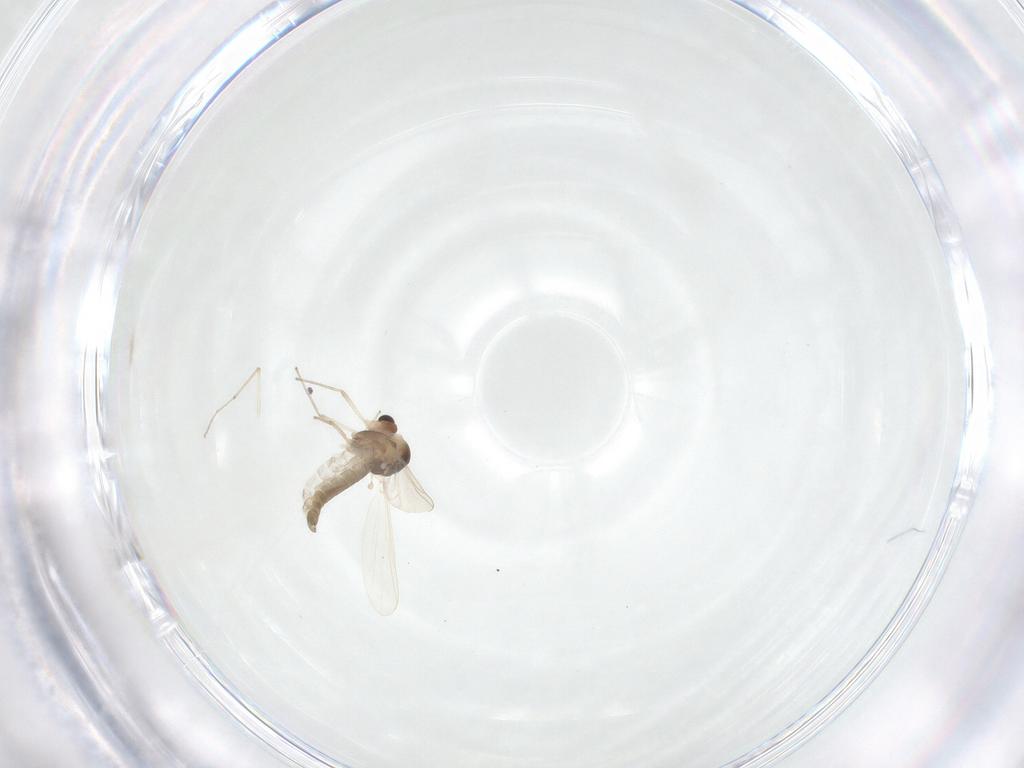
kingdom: Animalia
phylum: Arthropoda
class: Insecta
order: Diptera
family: Chironomidae
